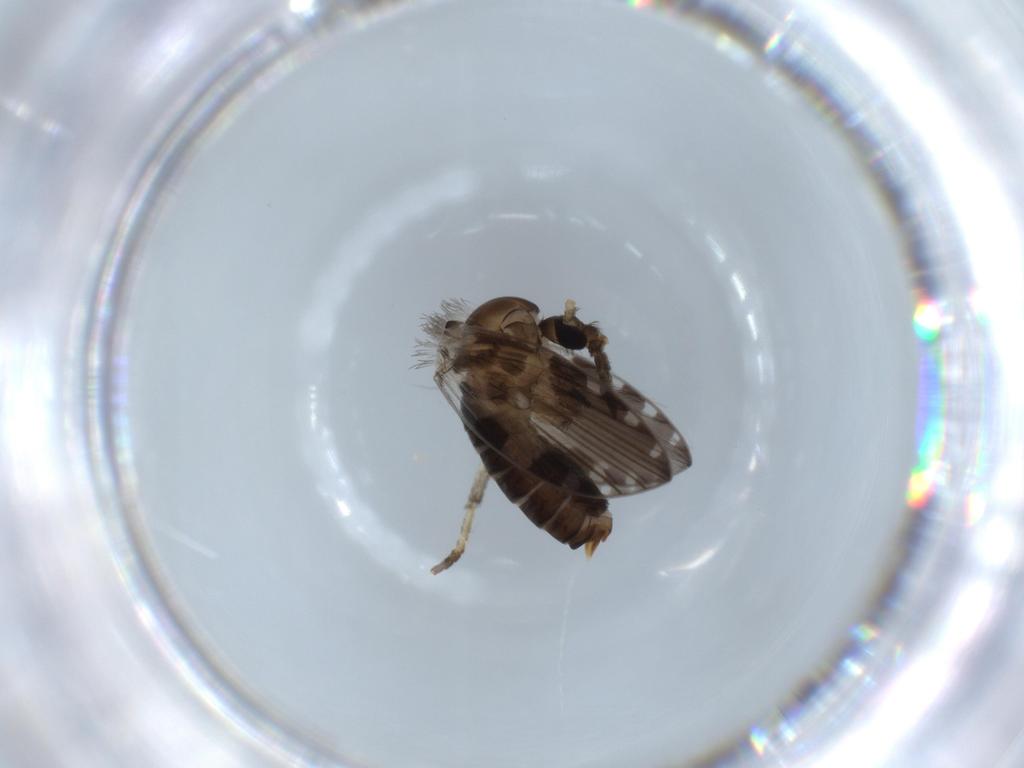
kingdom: Animalia
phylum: Arthropoda
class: Insecta
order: Diptera
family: Psychodidae
